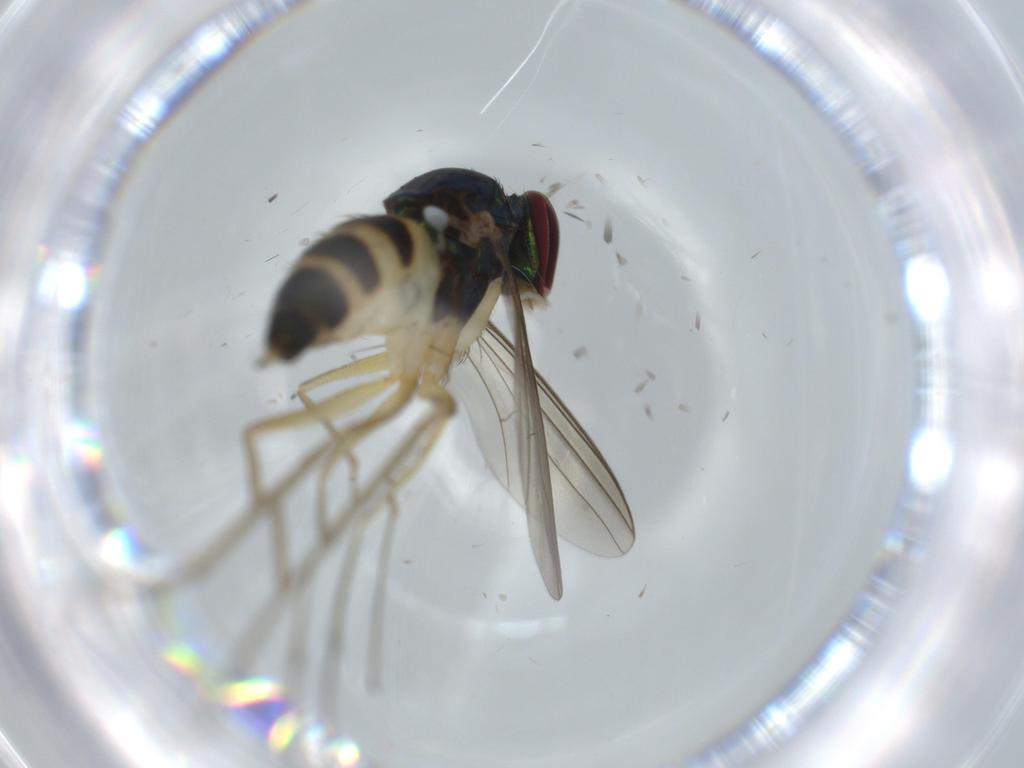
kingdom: Animalia
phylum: Arthropoda
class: Insecta
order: Diptera
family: Dolichopodidae
